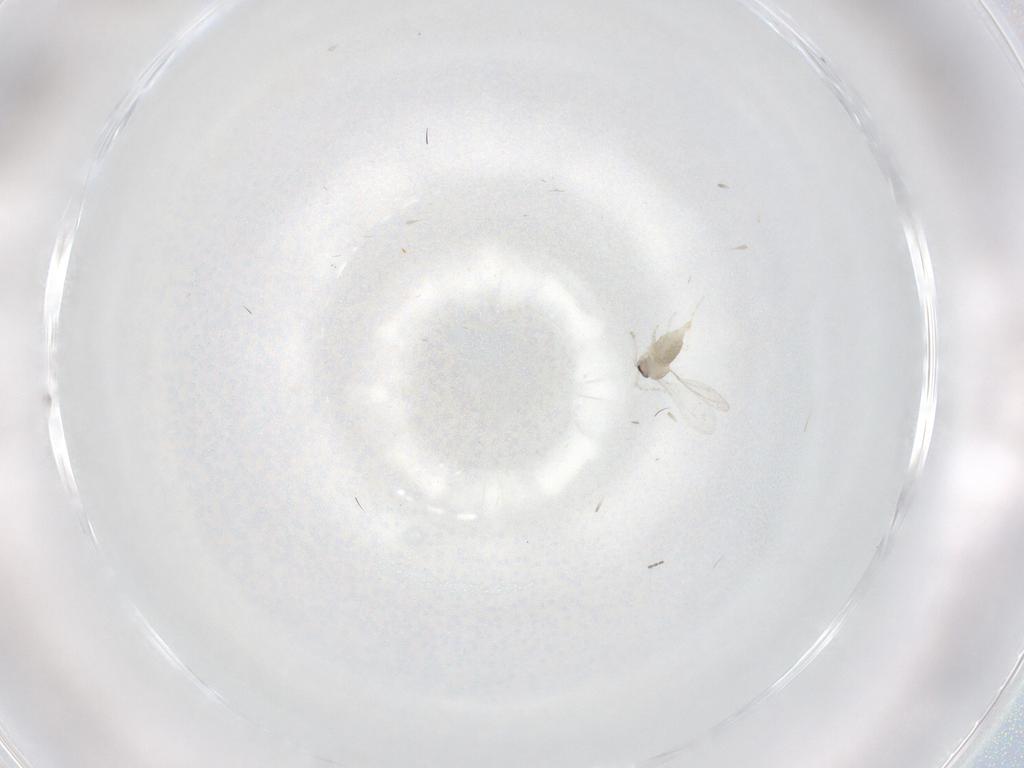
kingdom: Animalia
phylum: Arthropoda
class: Insecta
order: Diptera
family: Cecidomyiidae
